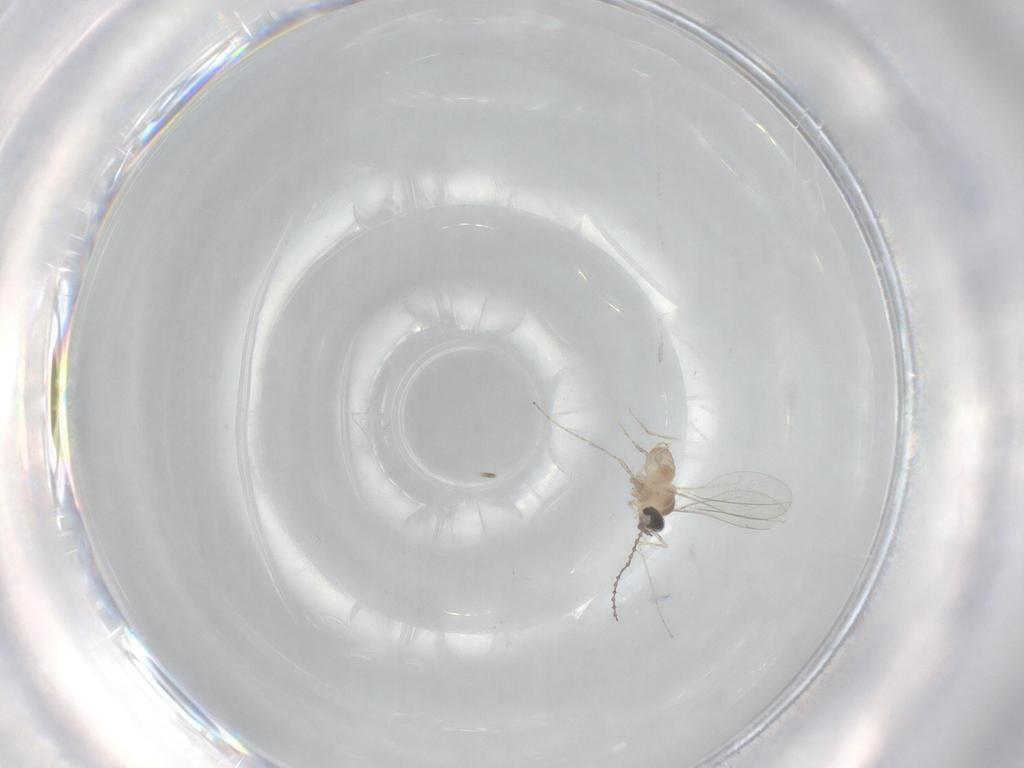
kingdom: Animalia
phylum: Arthropoda
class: Insecta
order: Diptera
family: Cecidomyiidae
